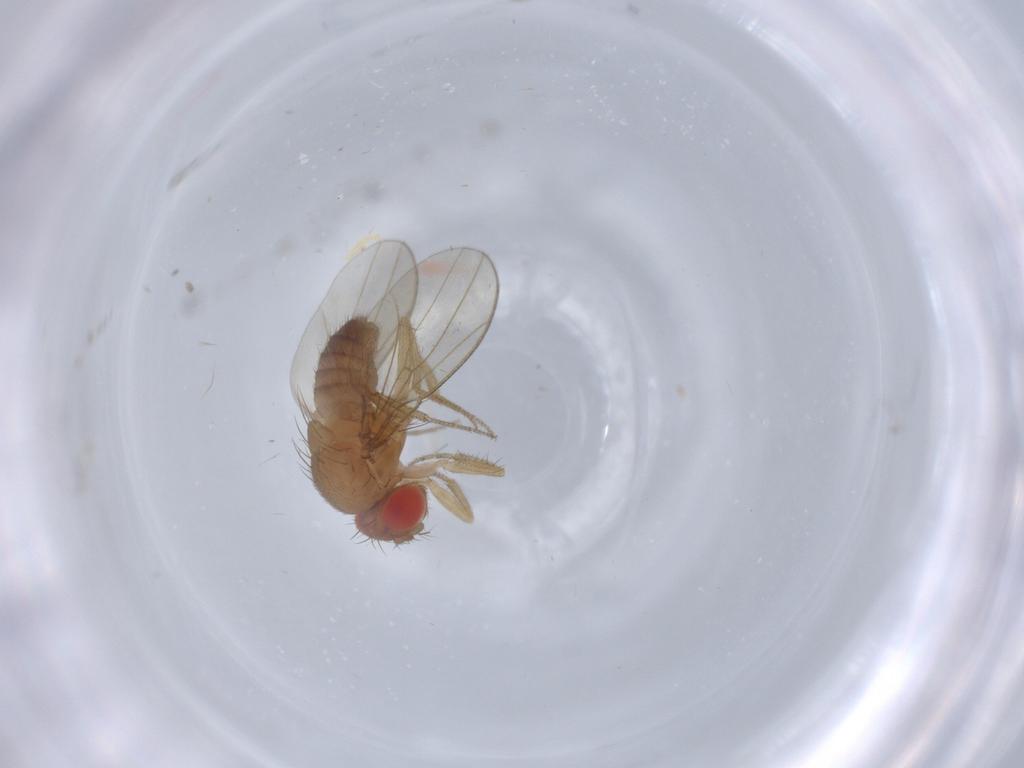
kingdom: Animalia
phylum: Arthropoda
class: Insecta
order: Diptera
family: Drosophilidae
